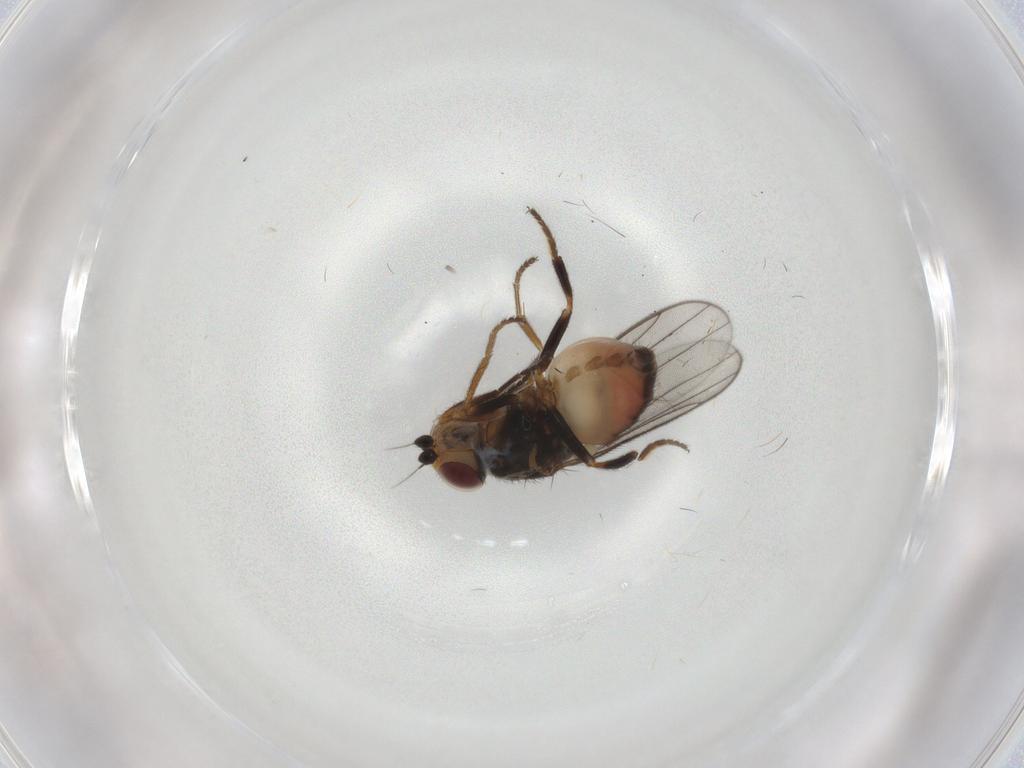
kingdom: Animalia
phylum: Arthropoda
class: Insecta
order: Diptera
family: Chloropidae
